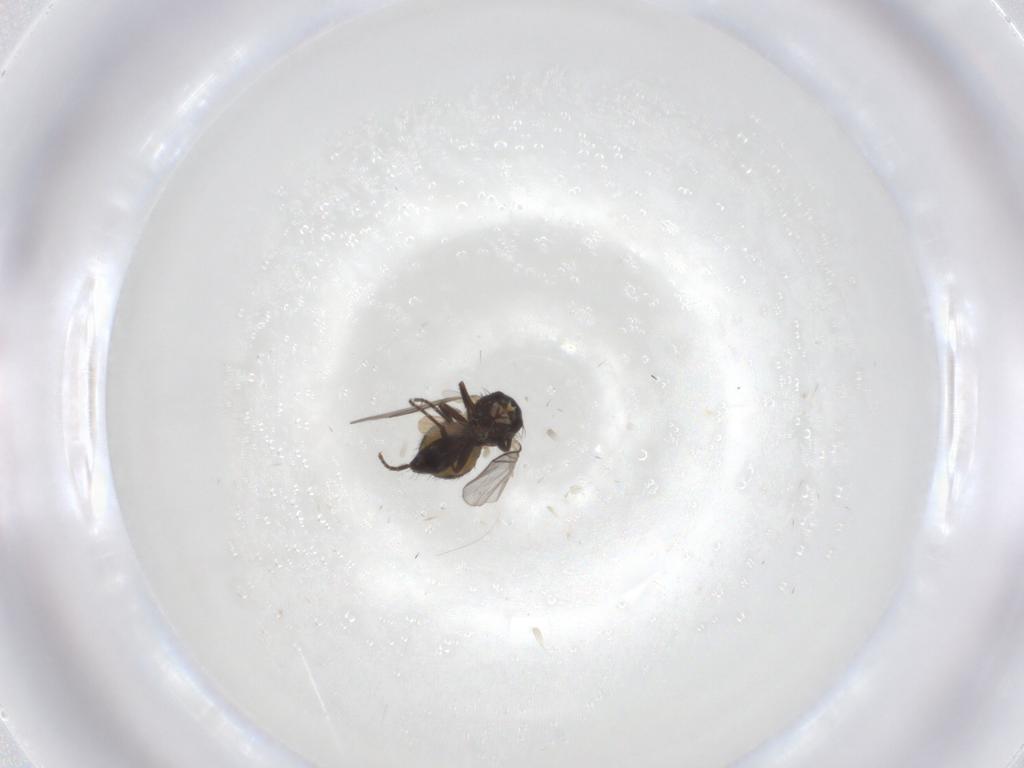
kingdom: Animalia
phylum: Arthropoda
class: Insecta
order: Diptera
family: Agromyzidae
